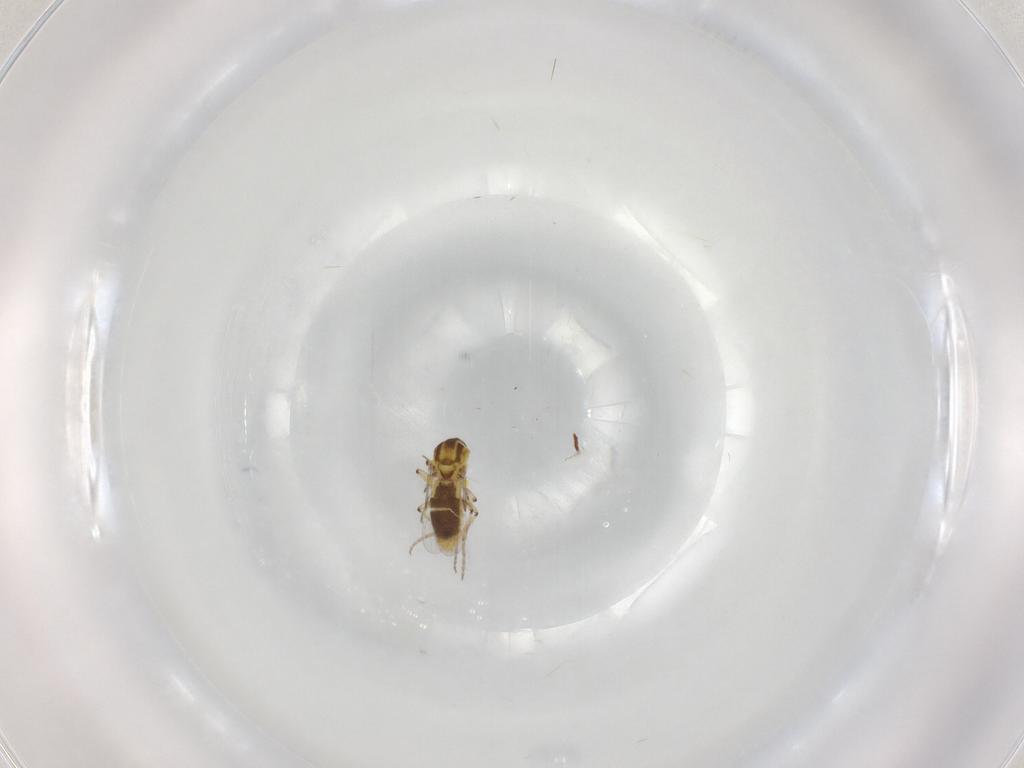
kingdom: Animalia
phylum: Arthropoda
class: Insecta
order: Diptera
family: Ceratopogonidae
